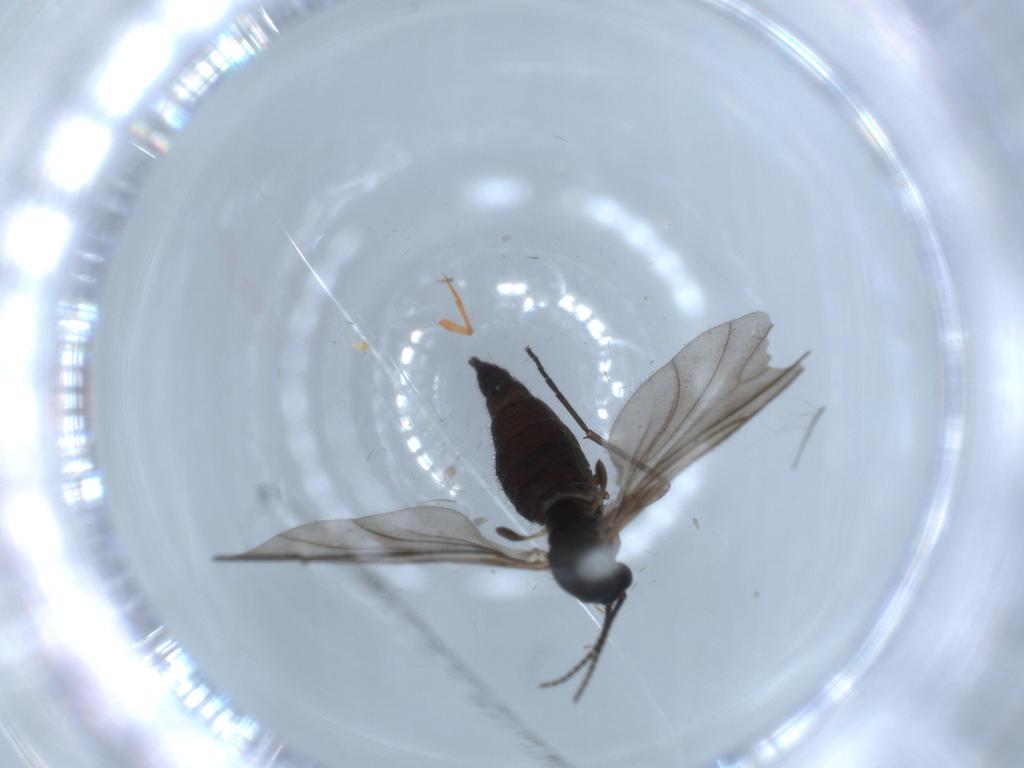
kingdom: Animalia
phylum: Arthropoda
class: Insecta
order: Diptera
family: Sciaridae
